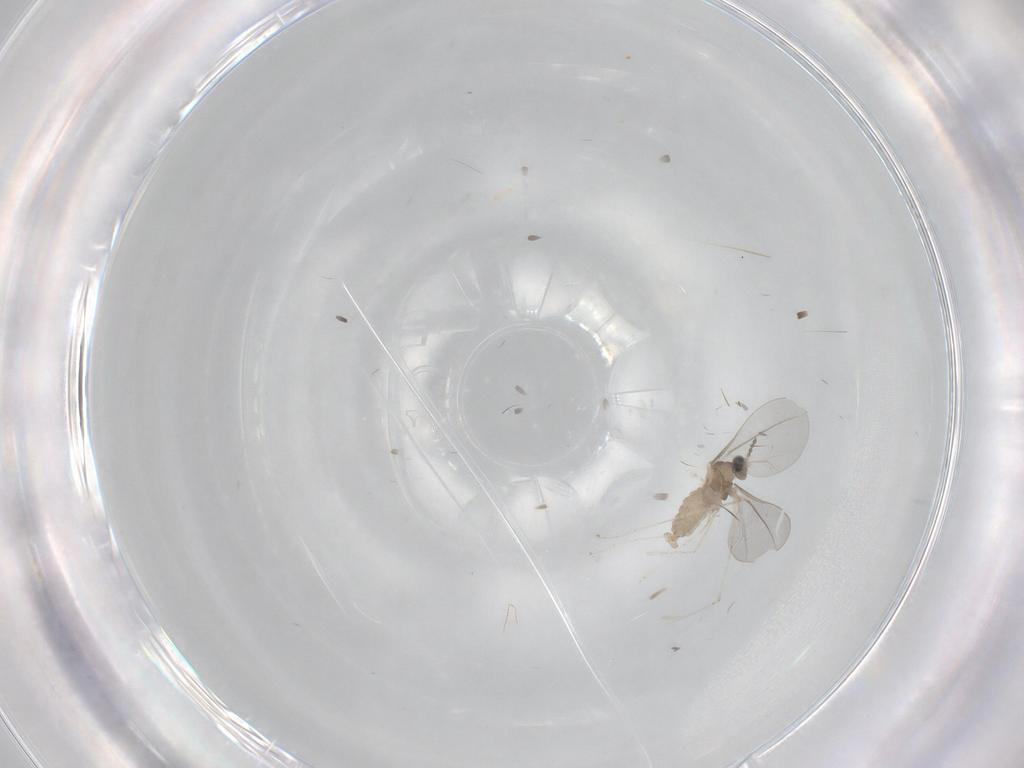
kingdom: Animalia
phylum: Arthropoda
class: Insecta
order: Diptera
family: Cecidomyiidae
